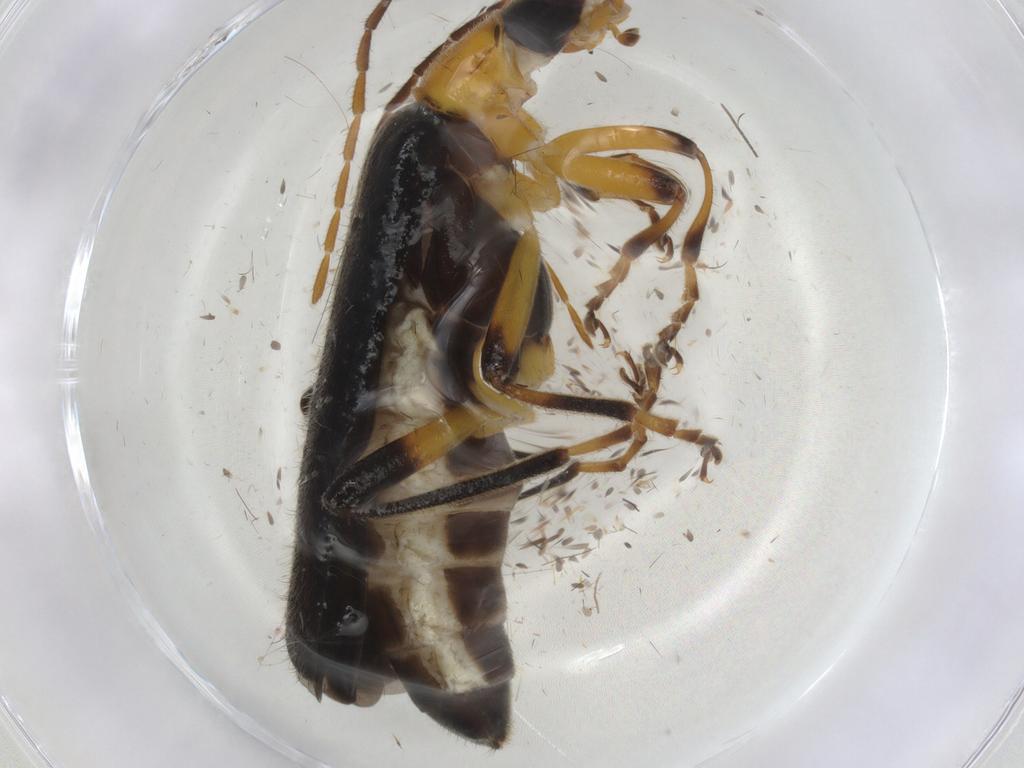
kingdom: Animalia
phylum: Arthropoda
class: Insecta
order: Coleoptera
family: Cantharidae
